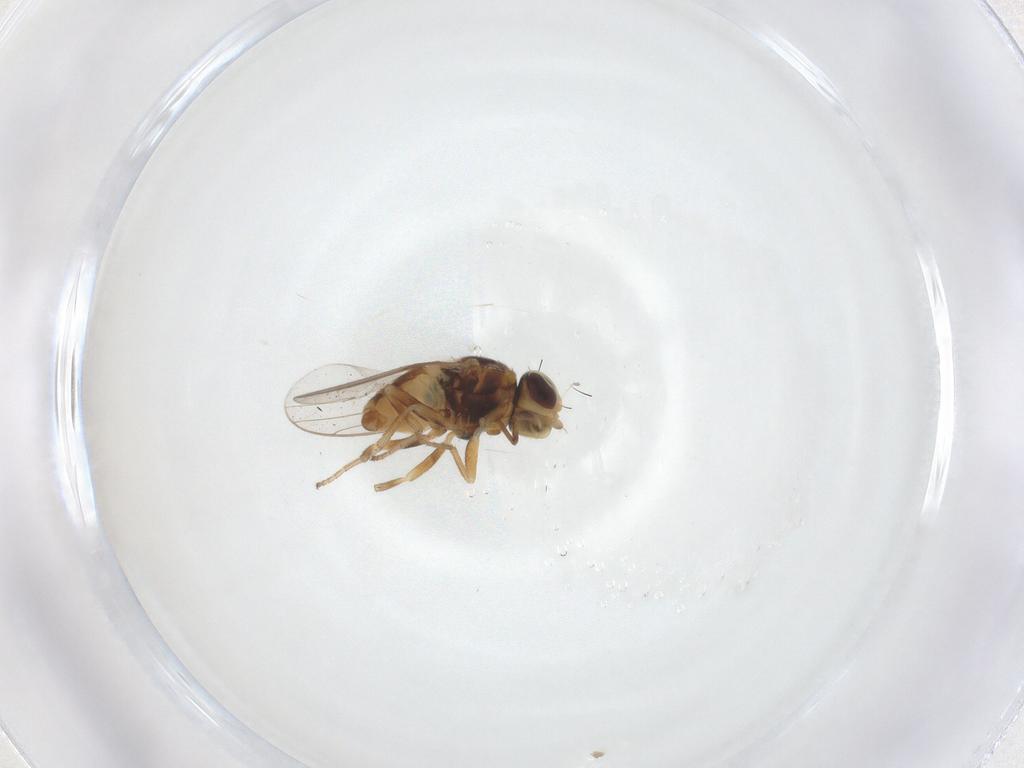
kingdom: Animalia
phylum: Arthropoda
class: Insecta
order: Diptera
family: Chloropidae
